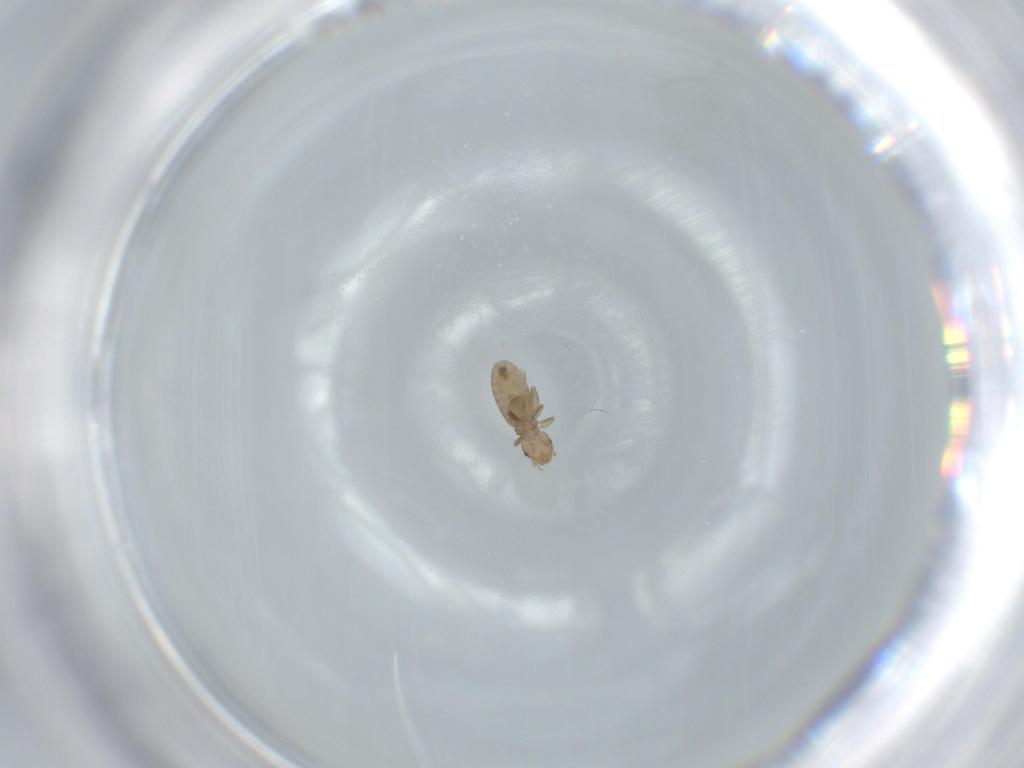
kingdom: Animalia
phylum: Arthropoda
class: Insecta
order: Psocodea
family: Liposcelididae
